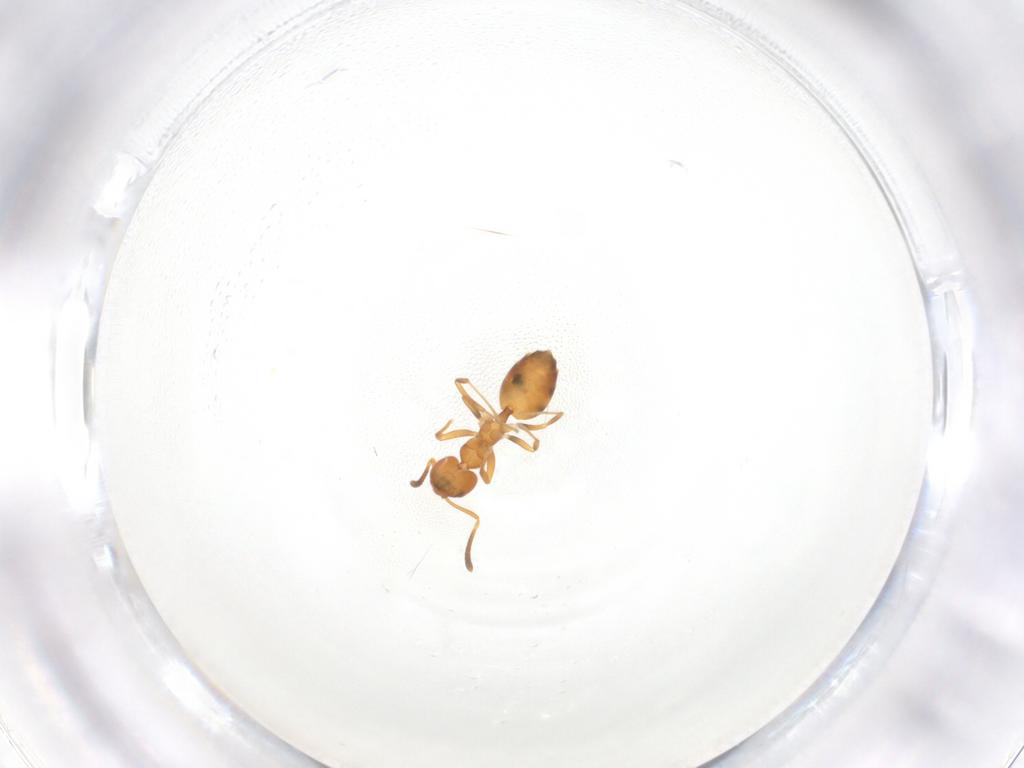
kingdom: Animalia
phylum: Arthropoda
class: Insecta
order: Hymenoptera
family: Formicidae
